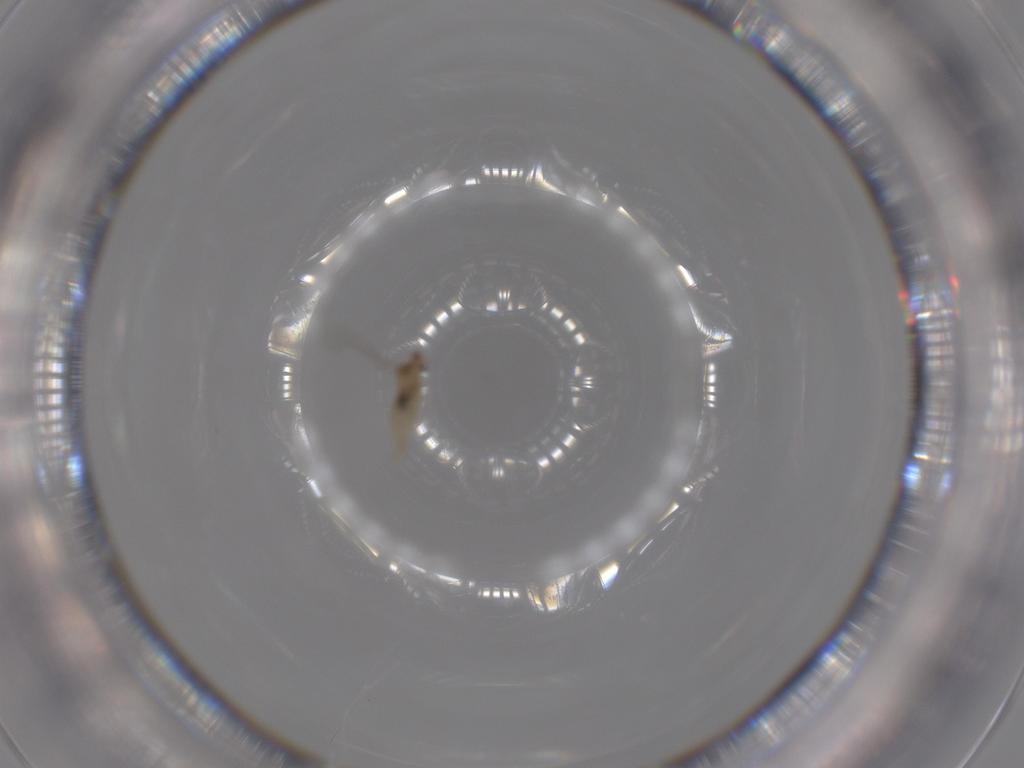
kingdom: Animalia
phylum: Arthropoda
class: Insecta
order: Diptera
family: Cecidomyiidae
